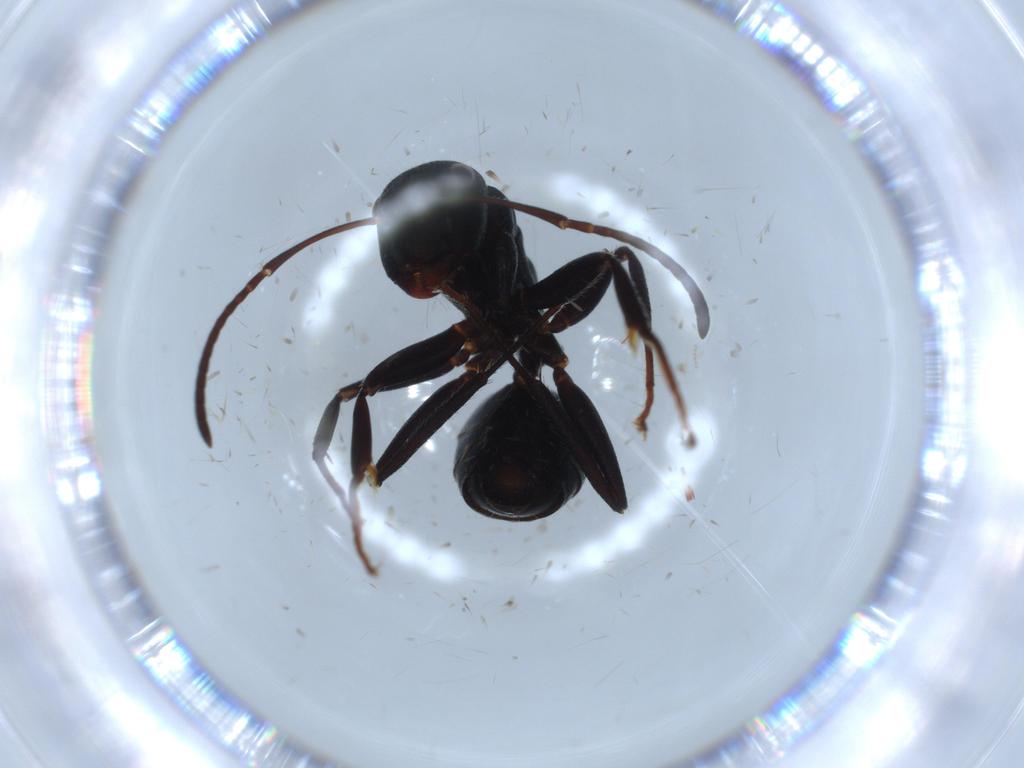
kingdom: Animalia
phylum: Arthropoda
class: Insecta
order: Hymenoptera
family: Formicidae
